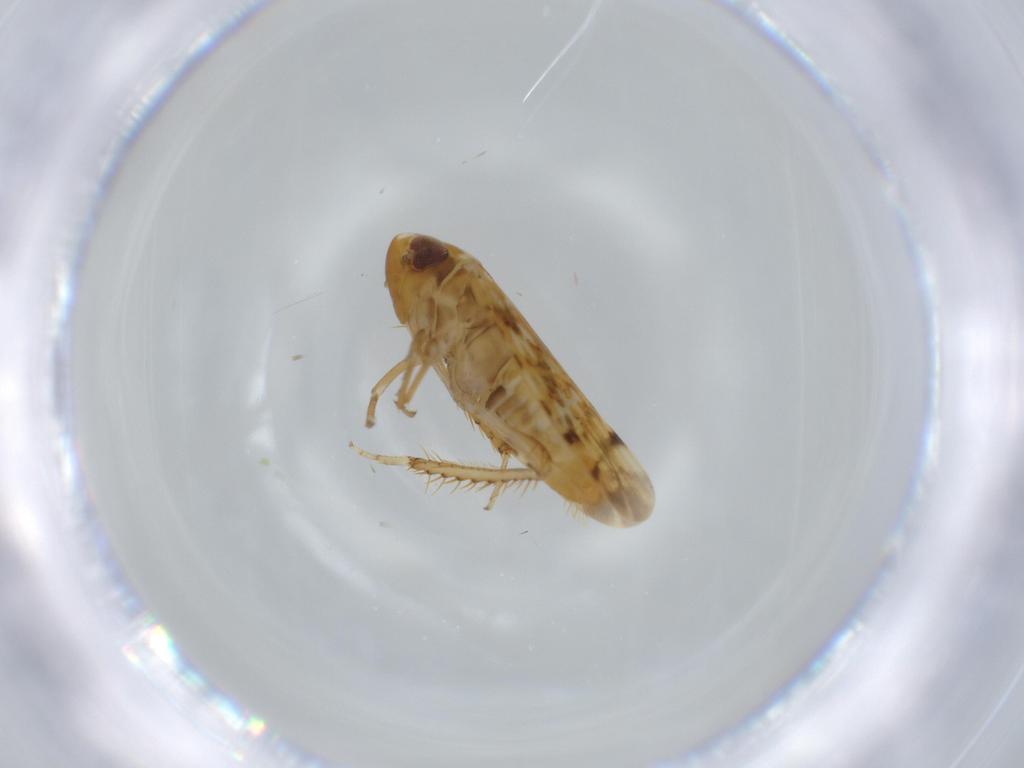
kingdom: Animalia
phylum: Arthropoda
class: Insecta
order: Hemiptera
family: Cicadellidae
